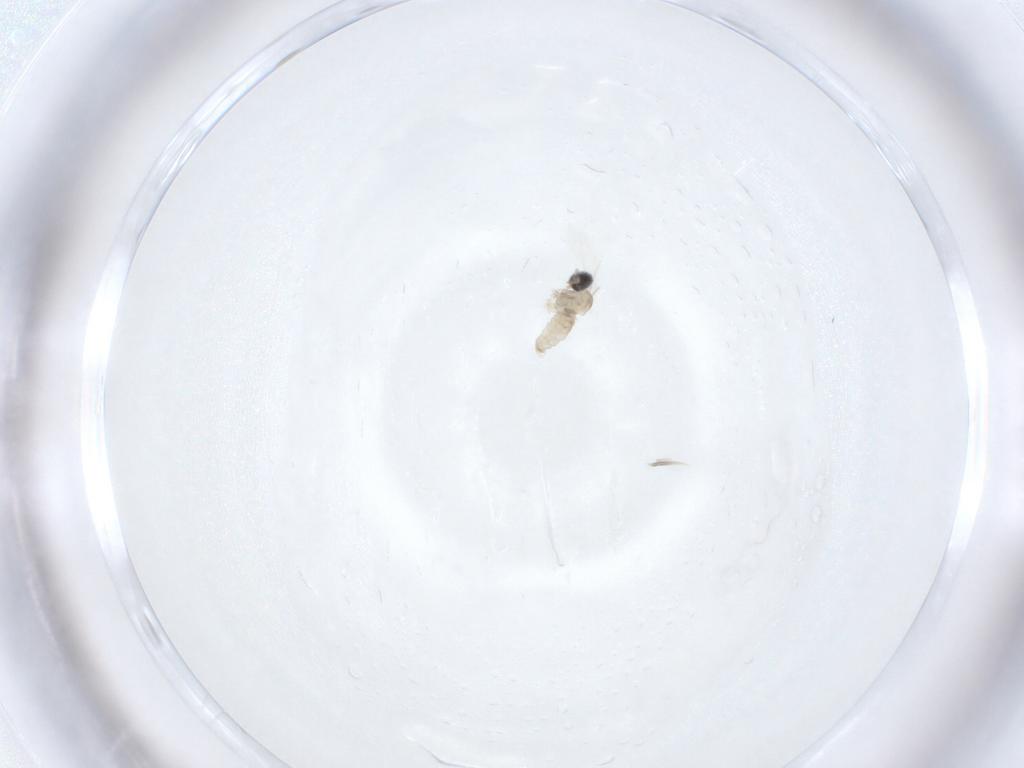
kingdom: Animalia
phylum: Arthropoda
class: Insecta
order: Diptera
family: Cecidomyiidae
